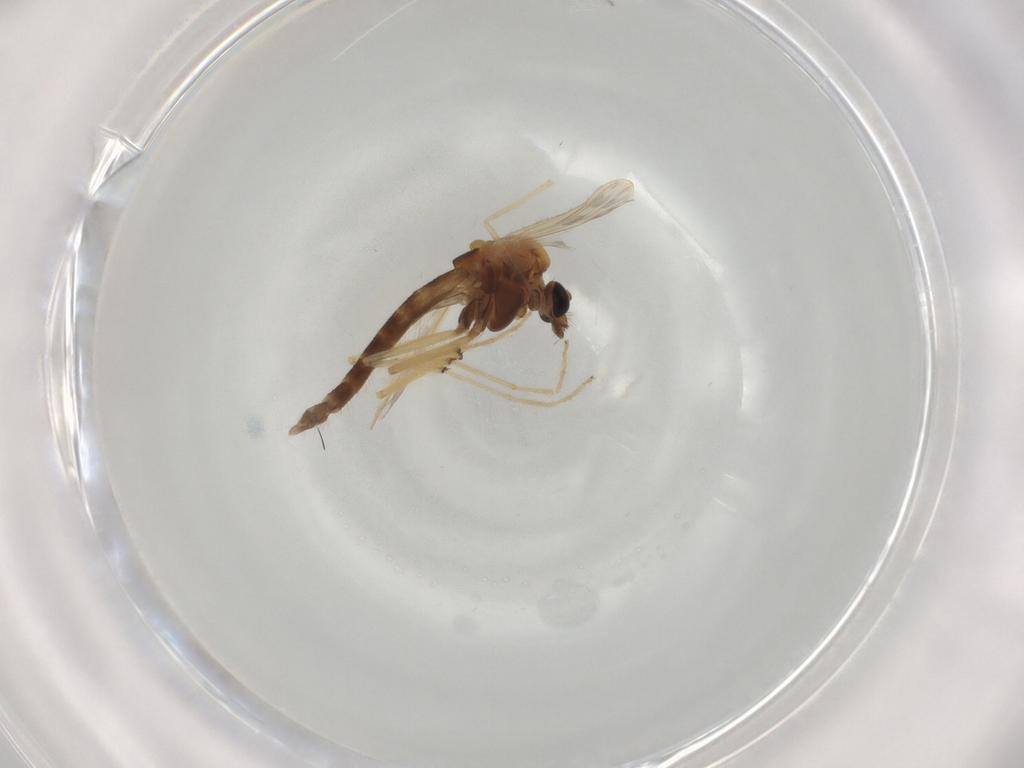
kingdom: Animalia
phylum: Arthropoda
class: Insecta
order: Diptera
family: Chironomidae
